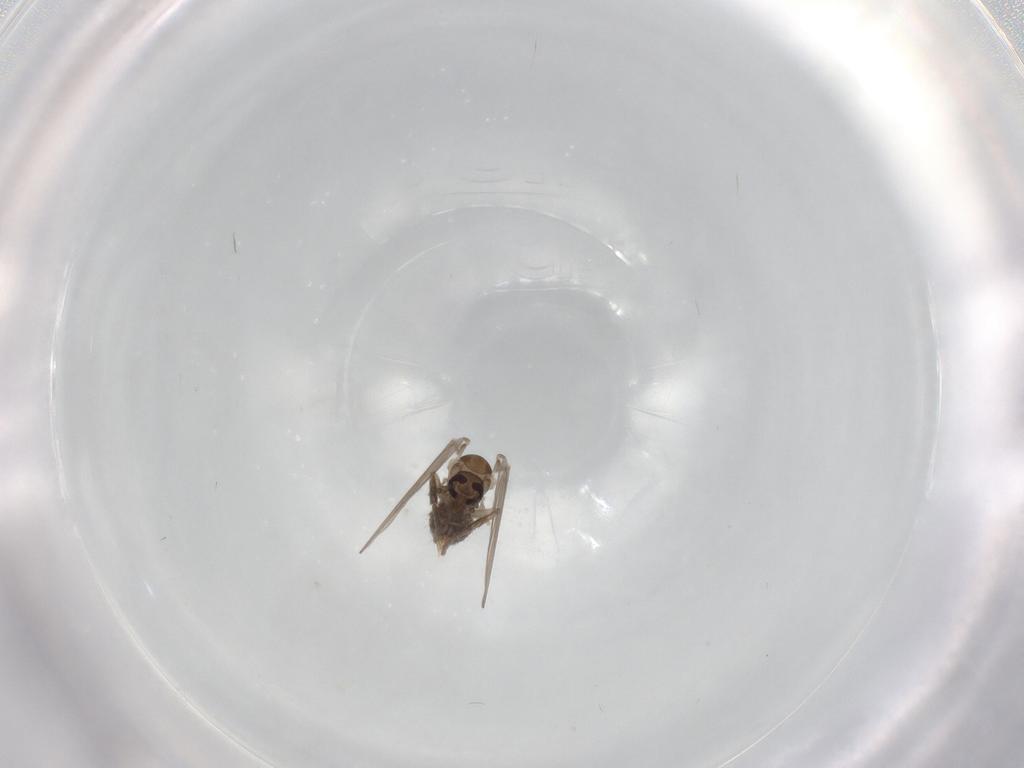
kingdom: Animalia
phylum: Arthropoda
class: Insecta
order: Diptera
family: Psychodidae
